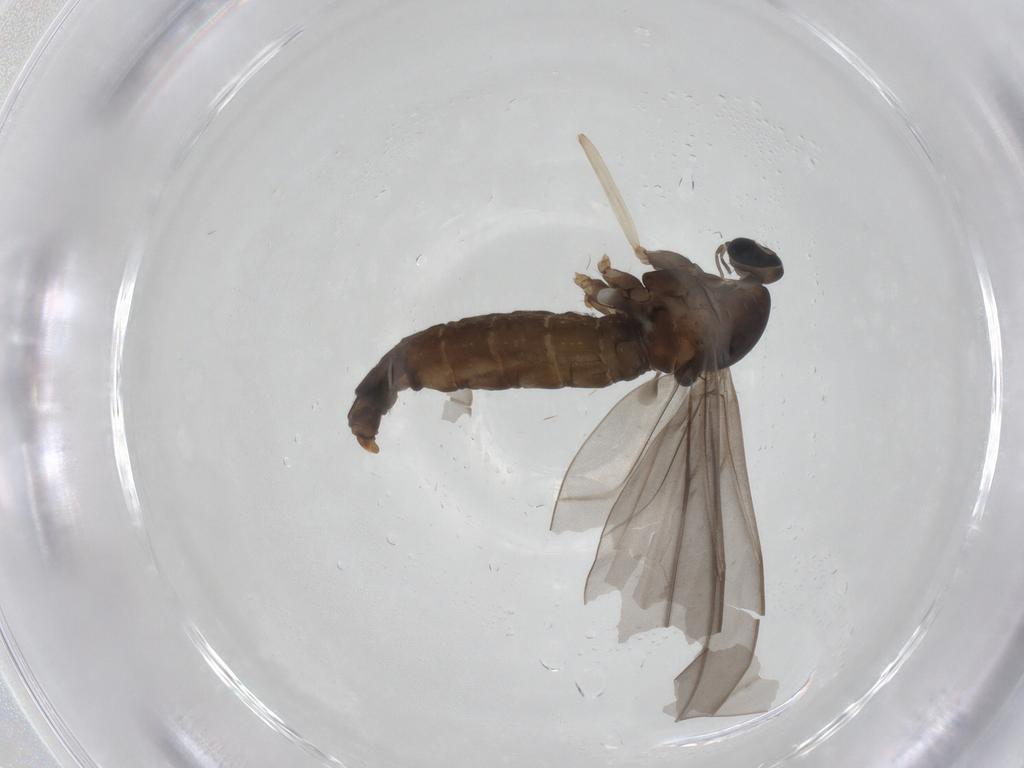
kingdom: Animalia
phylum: Arthropoda
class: Insecta
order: Diptera
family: Cecidomyiidae
